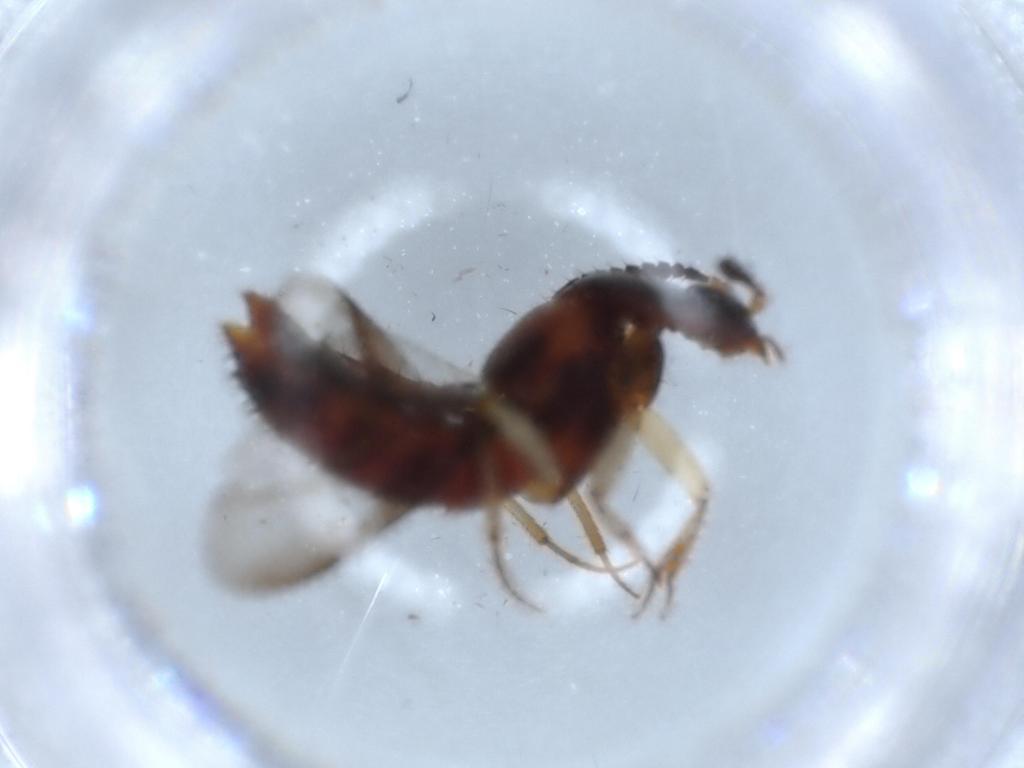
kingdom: Animalia
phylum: Arthropoda
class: Insecta
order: Coleoptera
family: Staphylinidae
